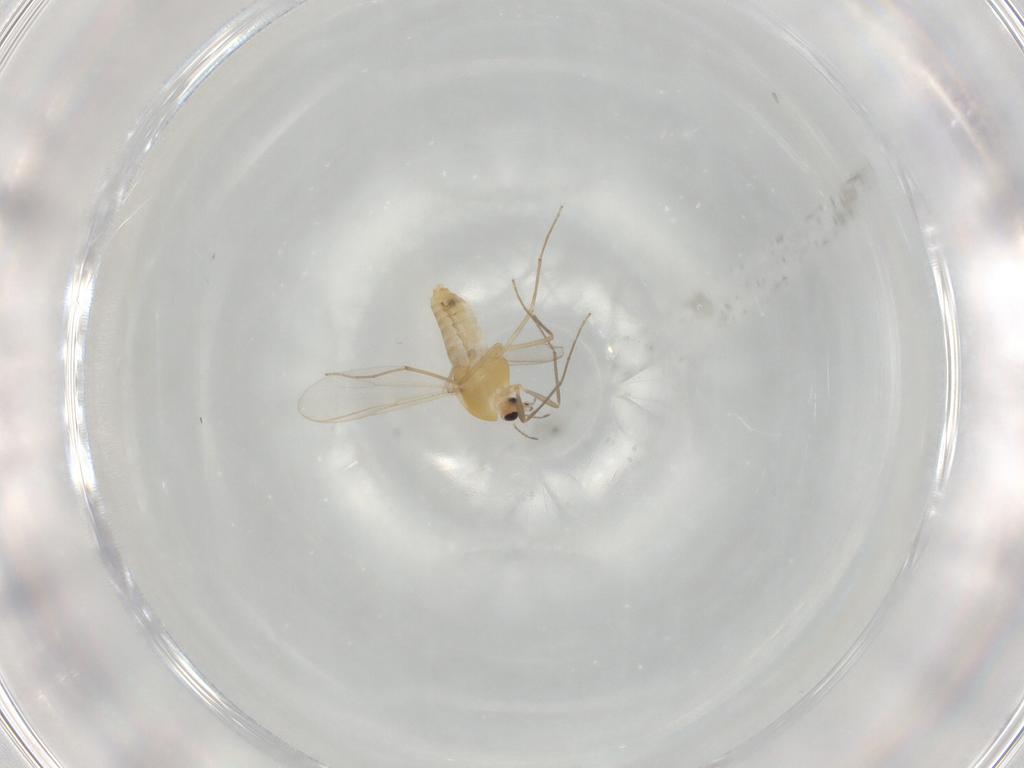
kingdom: Animalia
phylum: Arthropoda
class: Insecta
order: Diptera
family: Chironomidae
